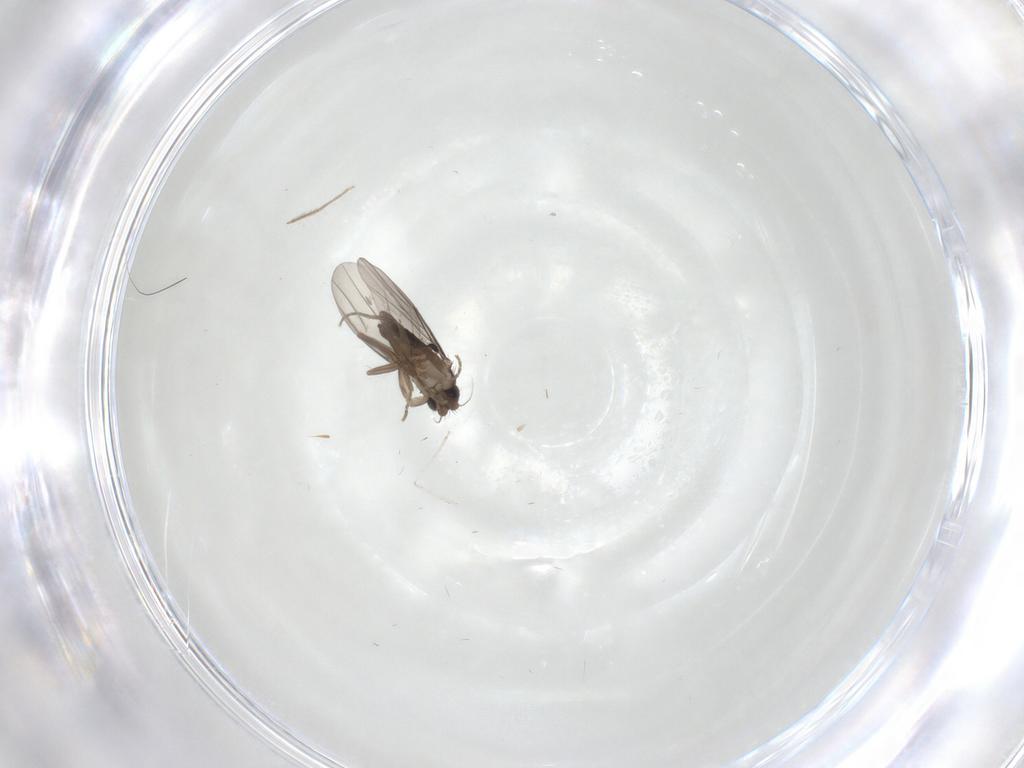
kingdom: Animalia
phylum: Arthropoda
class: Insecta
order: Diptera
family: Phoridae
